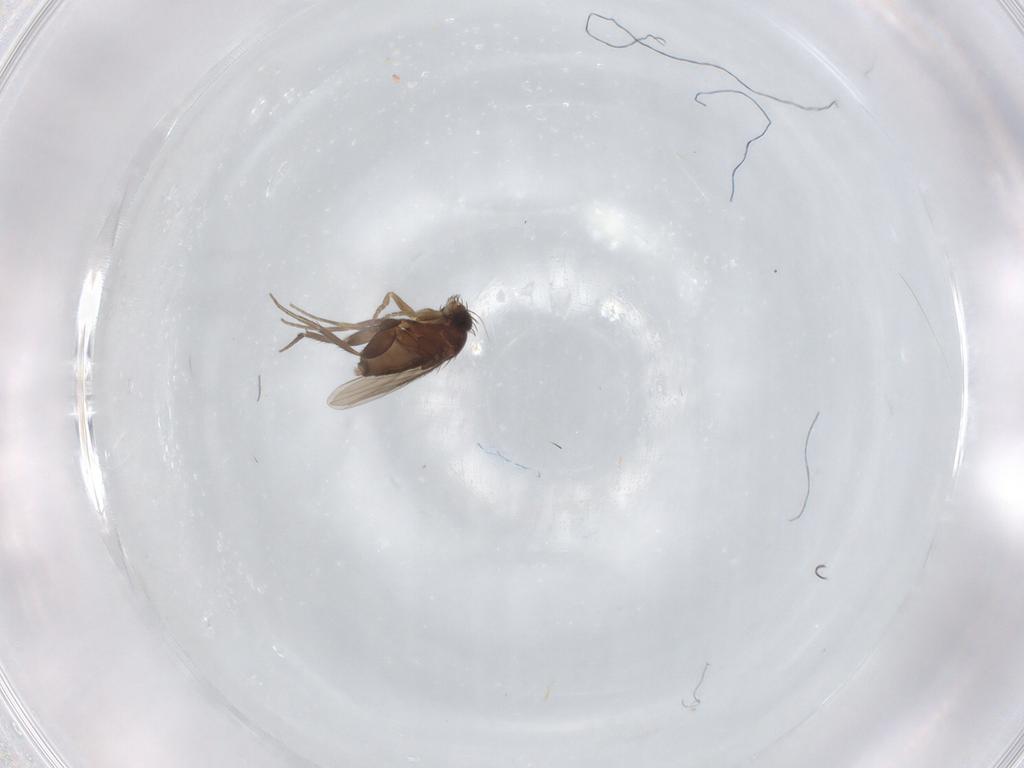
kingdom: Animalia
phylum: Arthropoda
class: Insecta
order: Diptera
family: Phoridae
